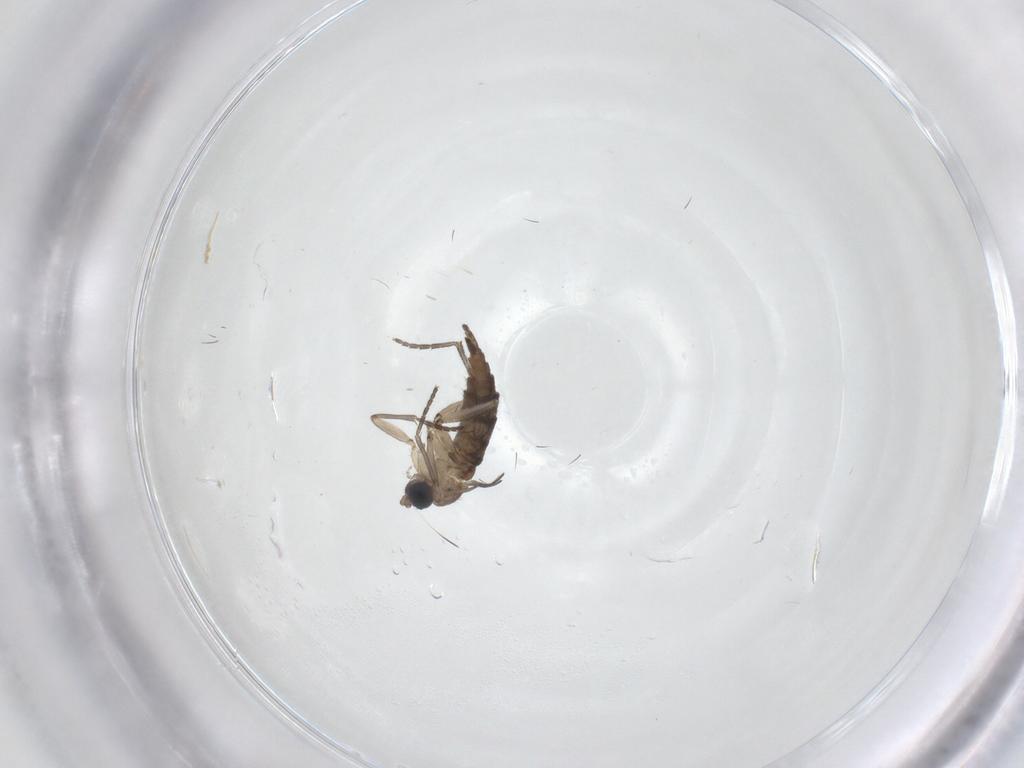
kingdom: Animalia
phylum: Arthropoda
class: Insecta
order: Diptera
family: Sciaridae
